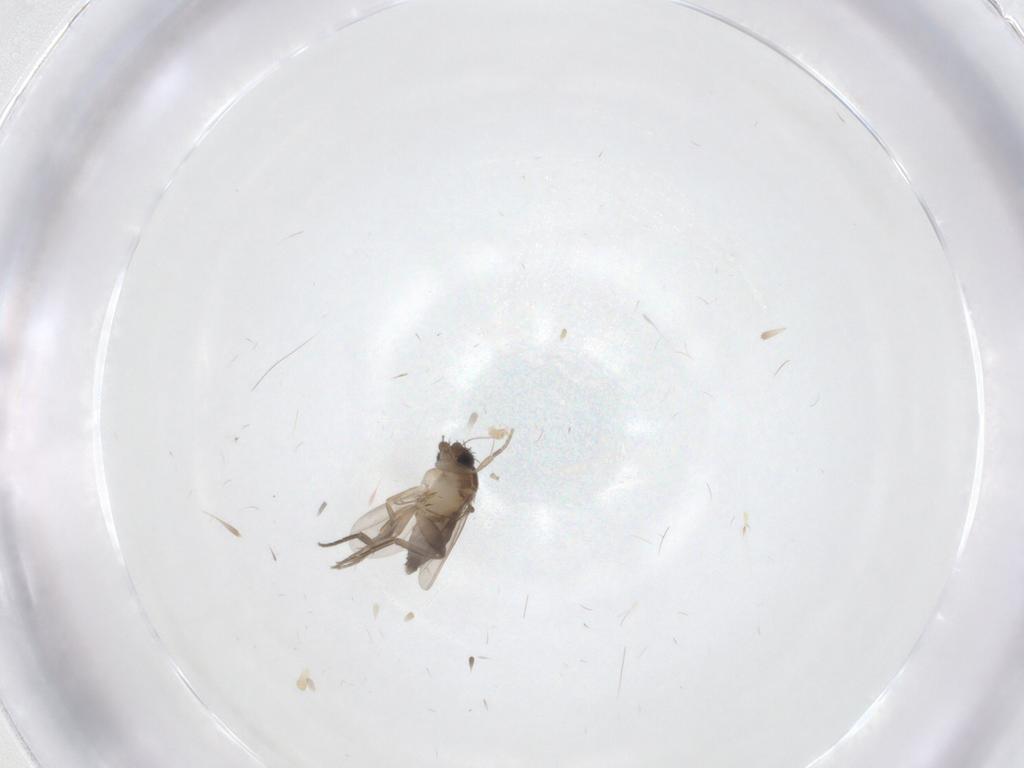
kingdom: Animalia
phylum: Arthropoda
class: Insecta
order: Diptera
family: Phoridae
